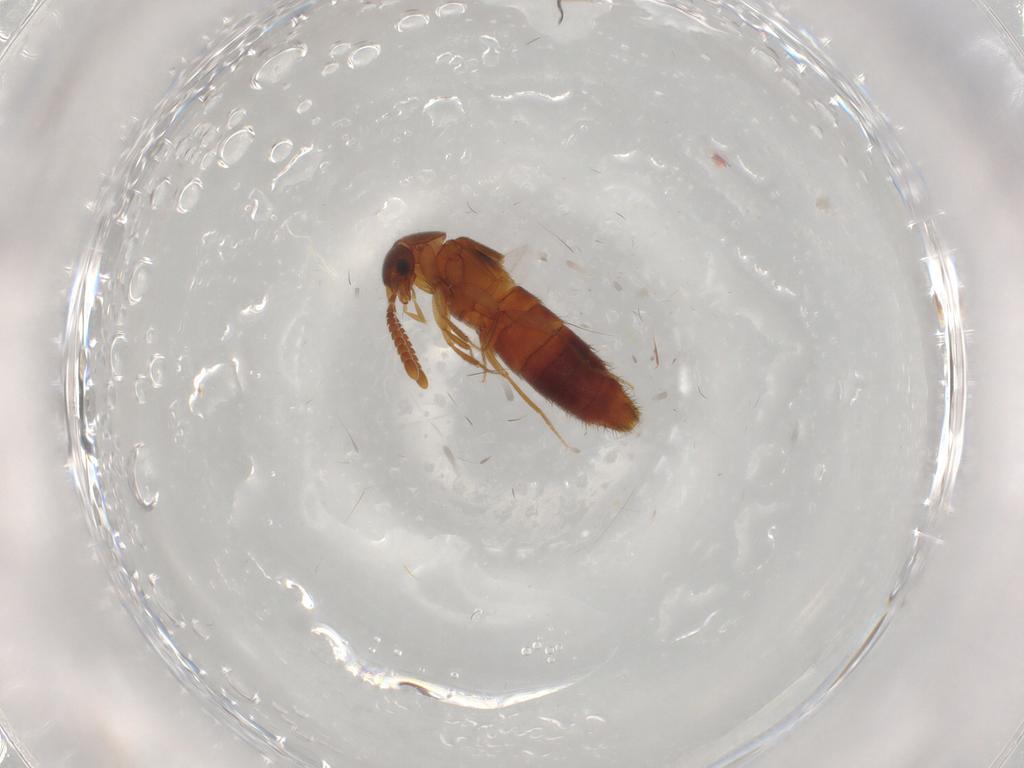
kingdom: Animalia
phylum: Arthropoda
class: Insecta
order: Coleoptera
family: Staphylinidae
